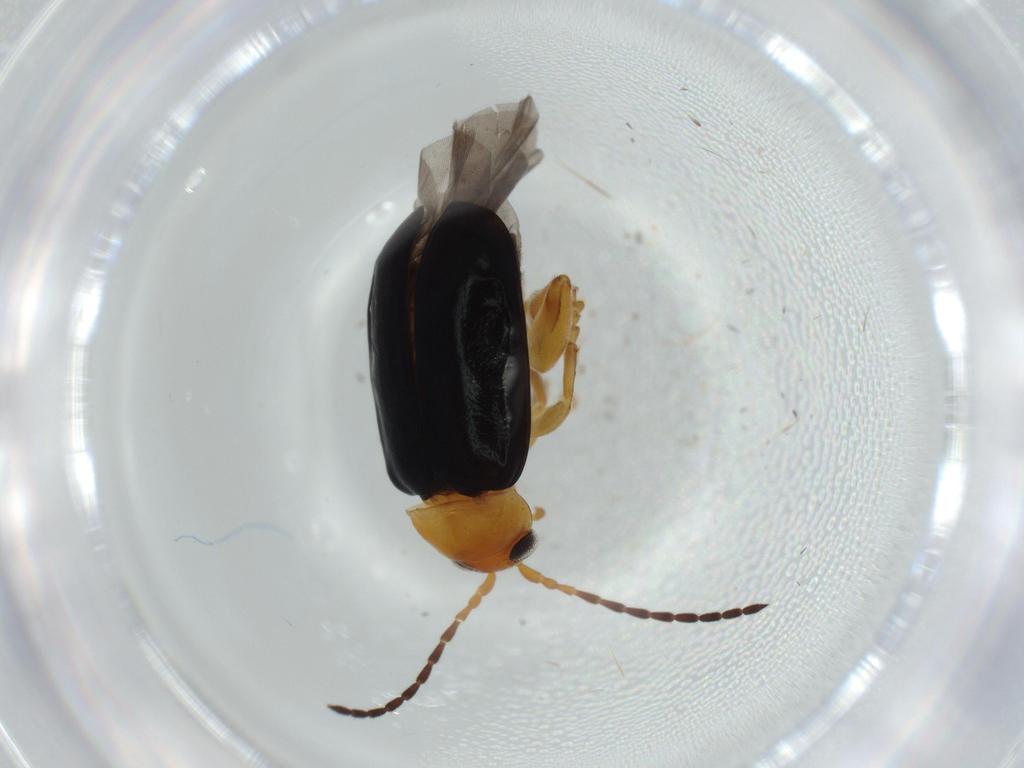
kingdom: Animalia
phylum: Arthropoda
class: Insecta
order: Coleoptera
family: Chrysomelidae
